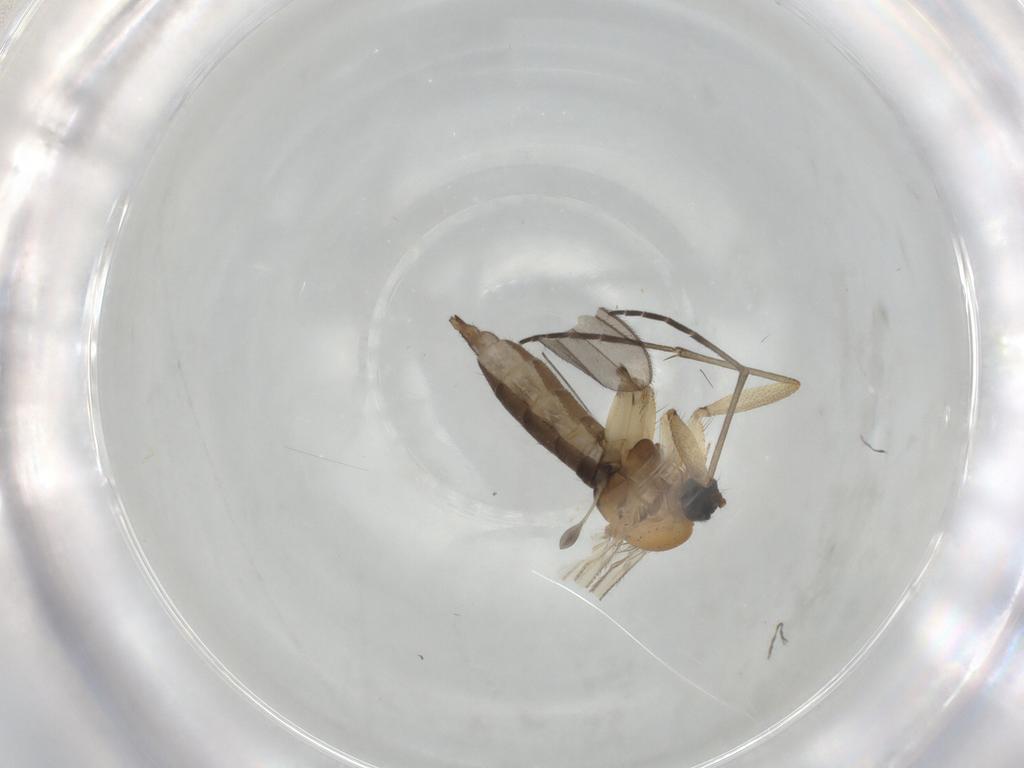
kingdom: Animalia
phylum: Arthropoda
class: Insecta
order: Diptera
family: Sciaridae
